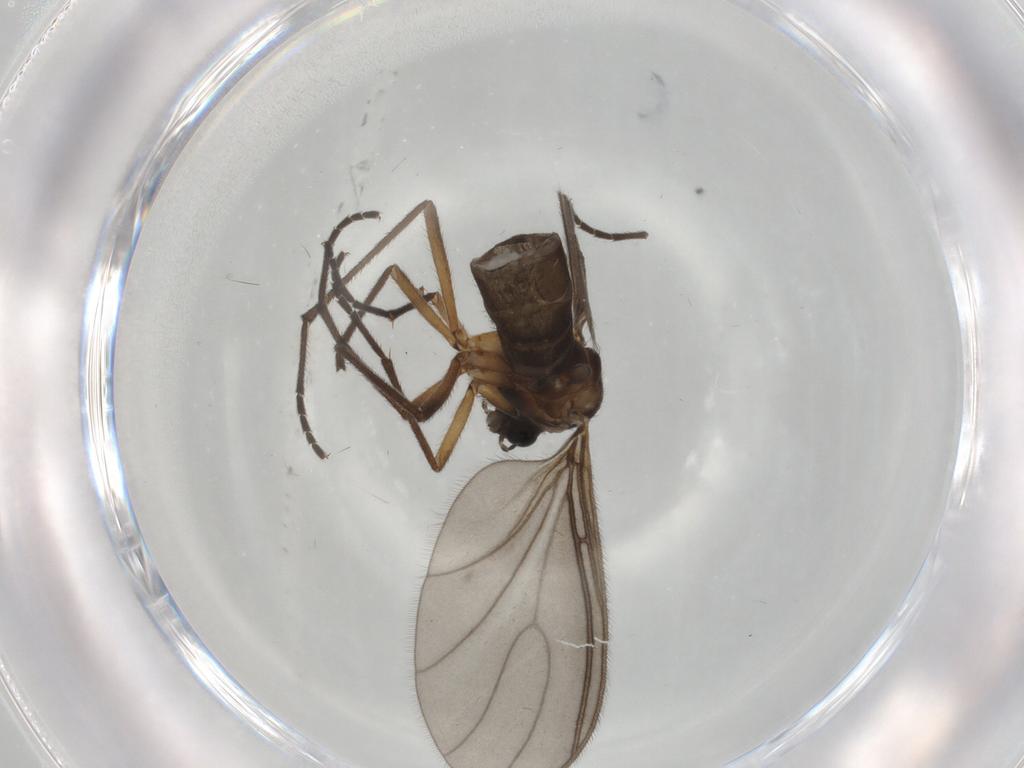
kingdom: Animalia
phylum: Arthropoda
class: Insecta
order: Diptera
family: Sciaridae
